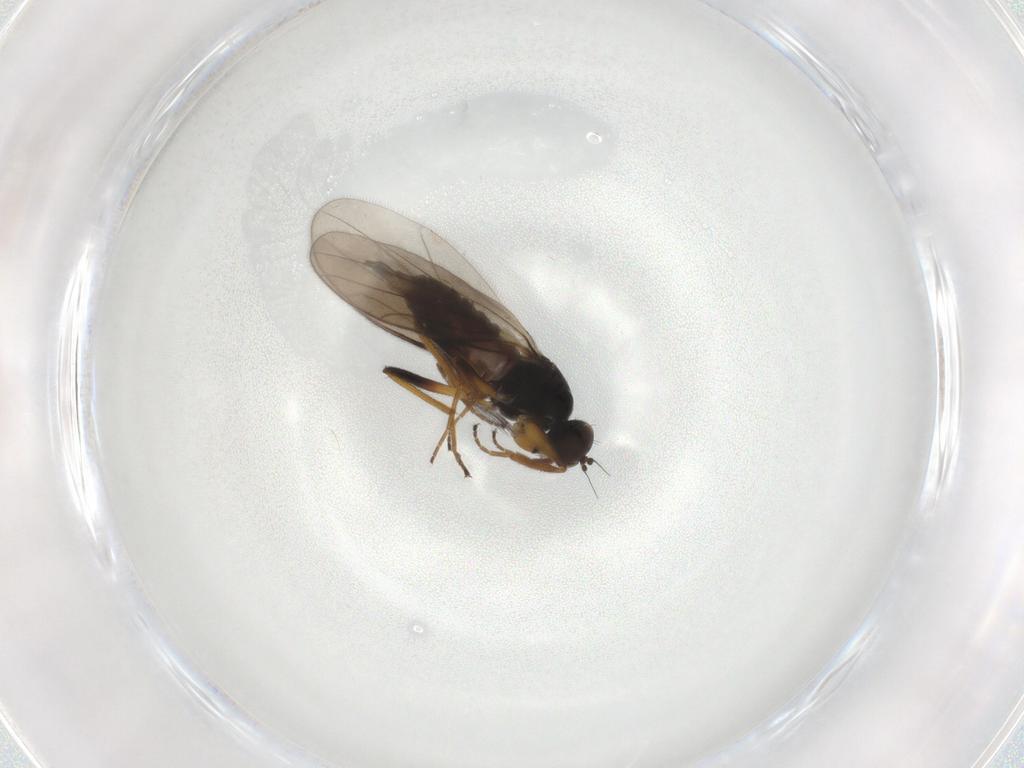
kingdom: Animalia
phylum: Arthropoda
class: Insecta
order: Diptera
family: Hybotidae
